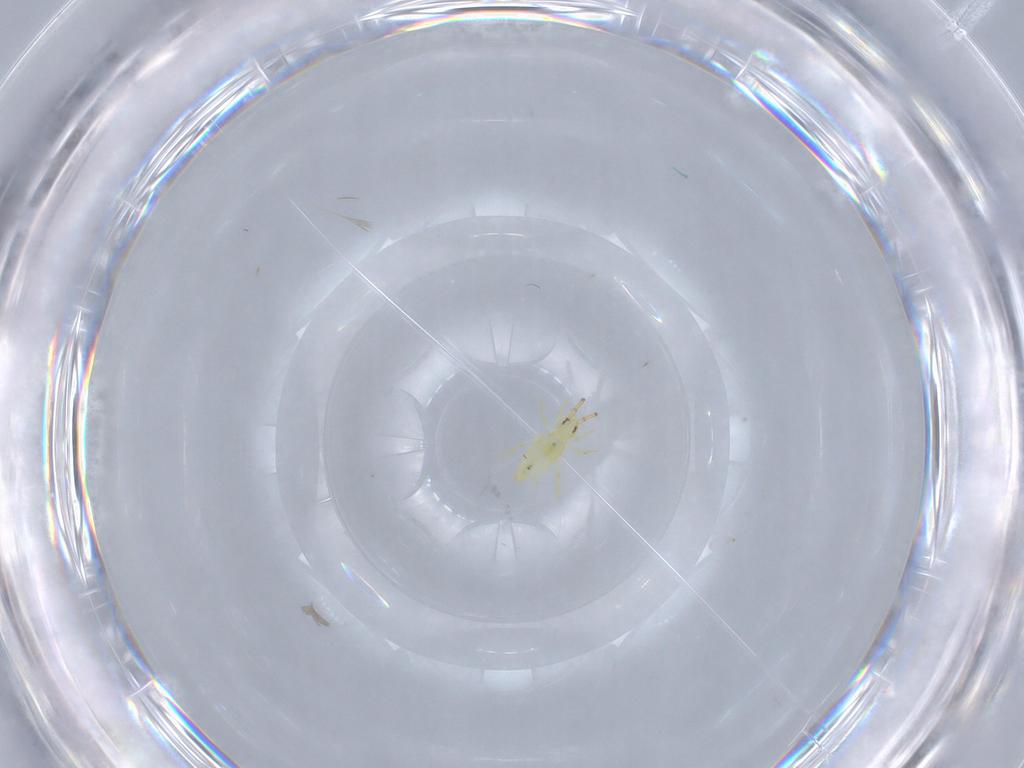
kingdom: Animalia
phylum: Arthropoda
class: Collembola
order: Entomobryomorpha
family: Paronellidae
